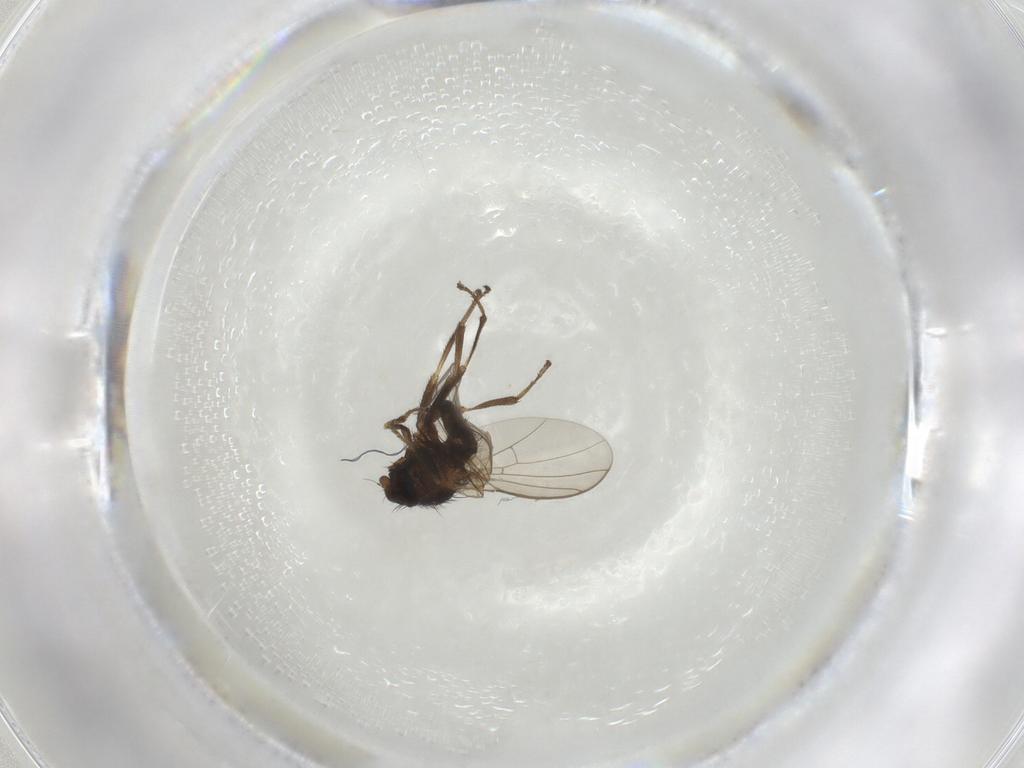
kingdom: Animalia
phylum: Arthropoda
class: Insecta
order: Diptera
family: Agromyzidae
